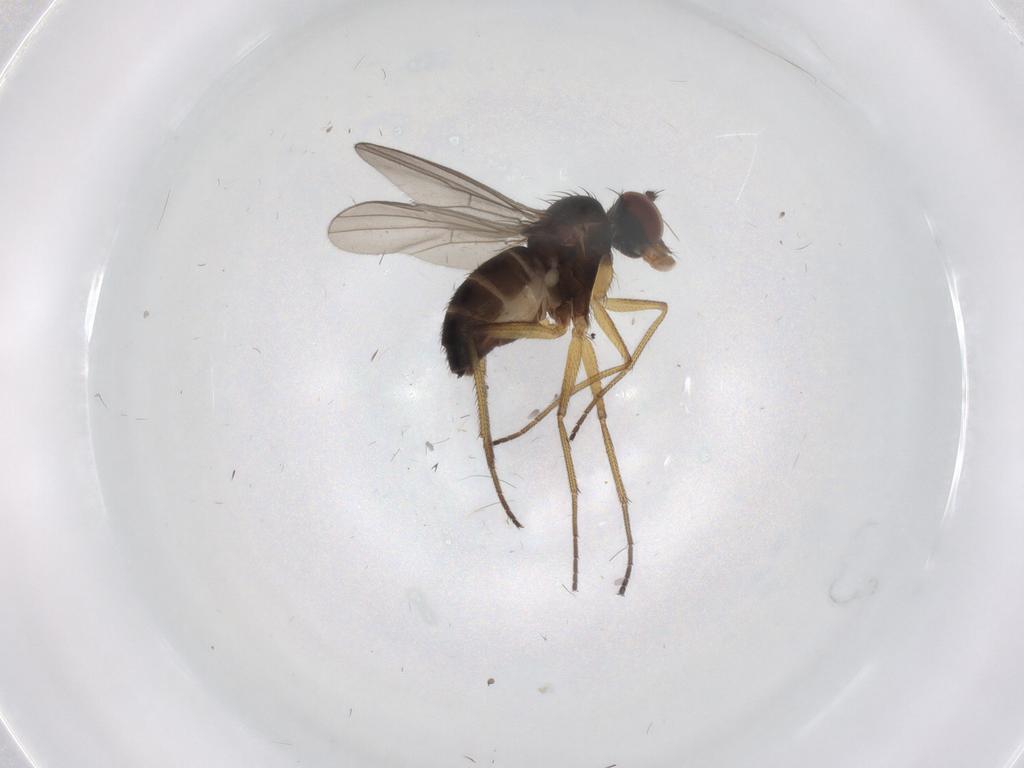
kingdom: Animalia
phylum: Arthropoda
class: Insecta
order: Diptera
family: Dolichopodidae
